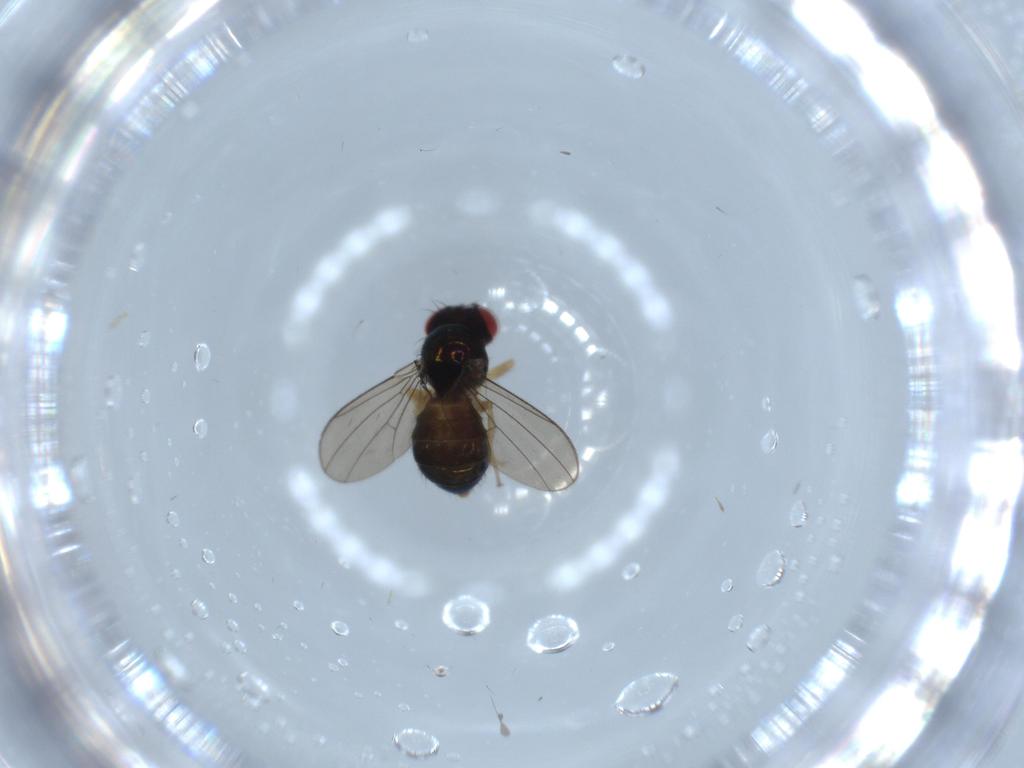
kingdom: Animalia
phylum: Arthropoda
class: Insecta
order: Diptera
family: Drosophilidae
